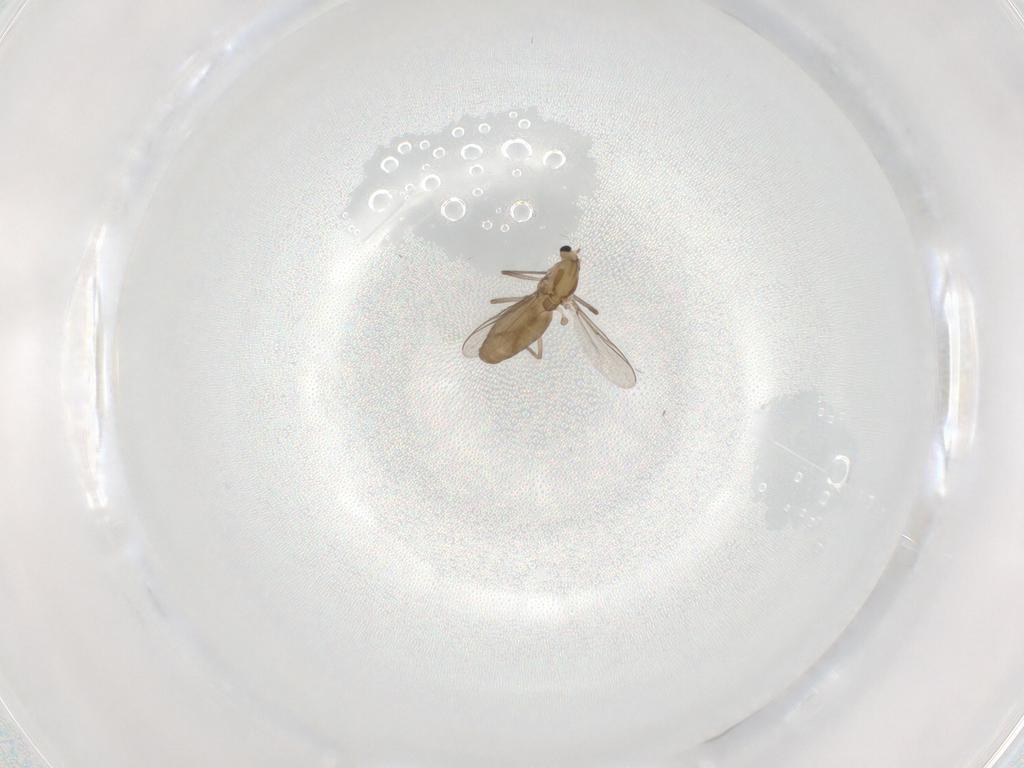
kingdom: Animalia
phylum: Arthropoda
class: Insecta
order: Diptera
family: Chironomidae
